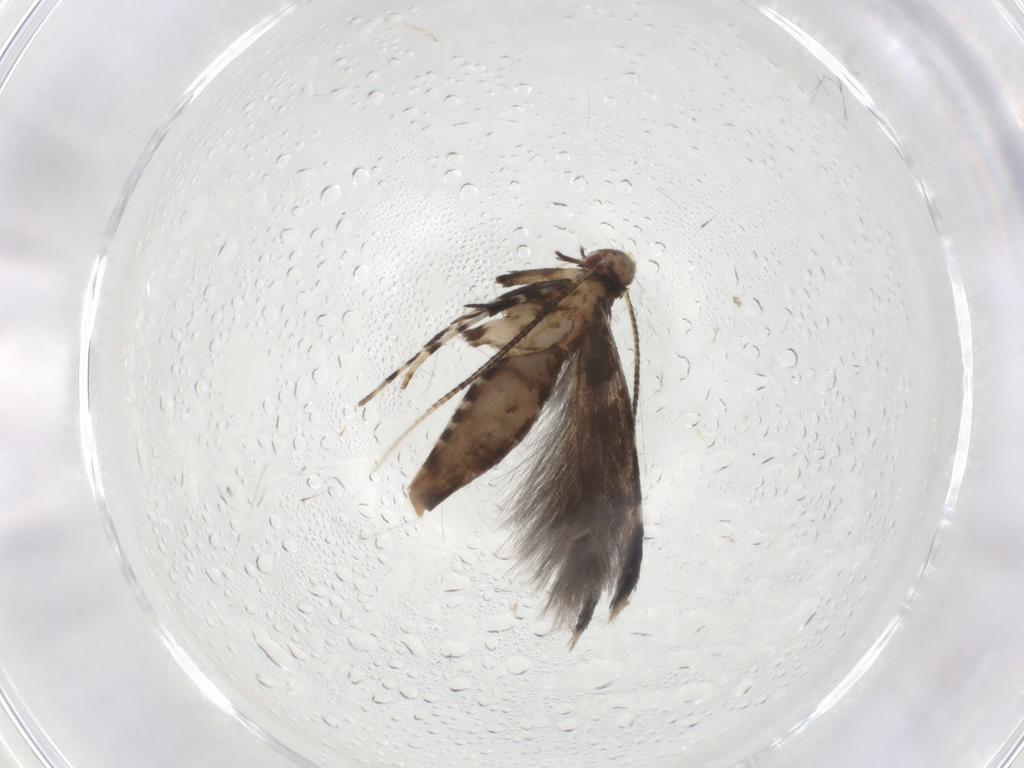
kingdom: Animalia
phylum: Arthropoda
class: Insecta
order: Lepidoptera
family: Gracillariidae
